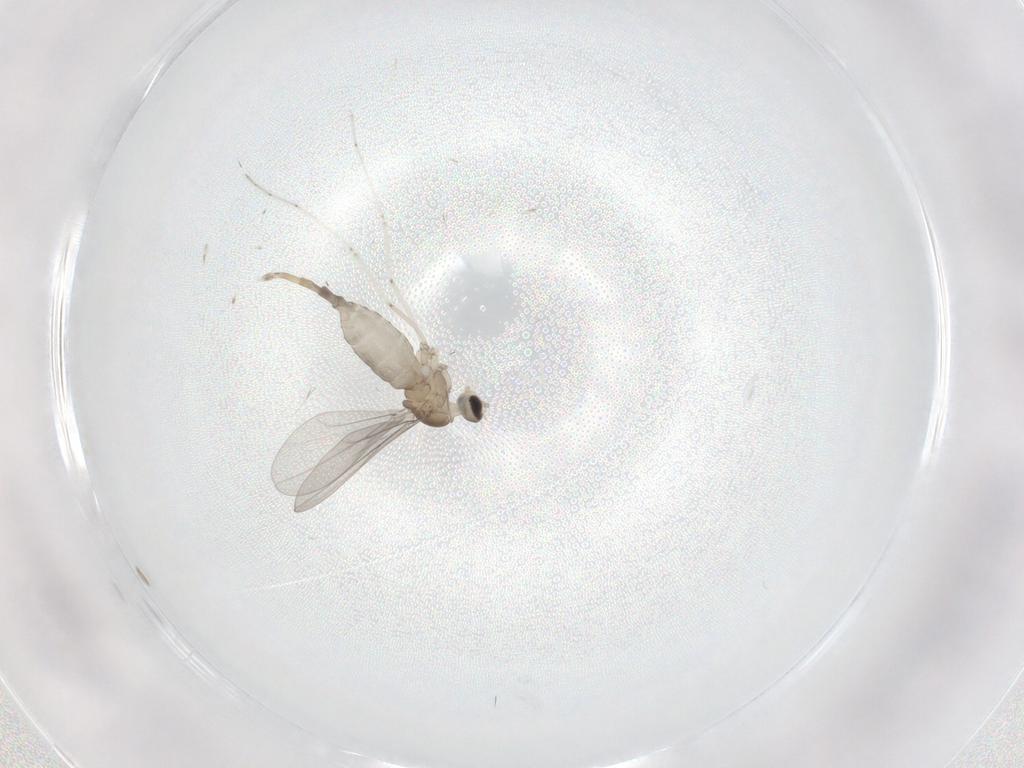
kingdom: Animalia
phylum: Arthropoda
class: Insecta
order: Diptera
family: Cecidomyiidae
